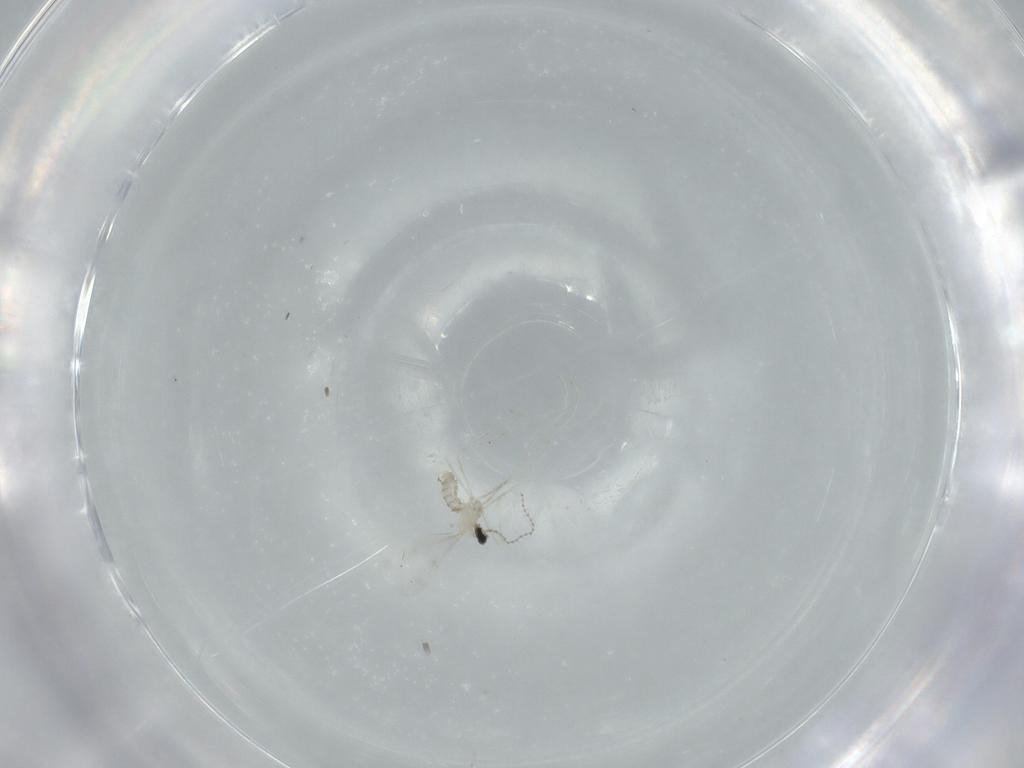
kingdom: Animalia
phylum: Arthropoda
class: Insecta
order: Diptera
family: Cecidomyiidae
